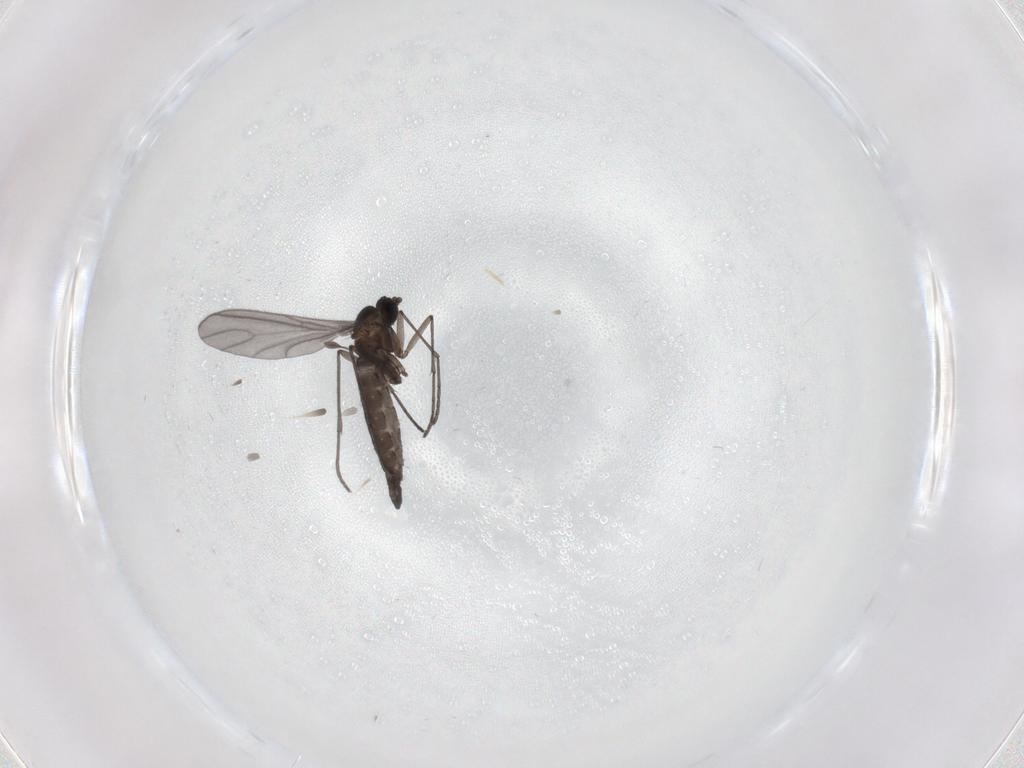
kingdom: Animalia
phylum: Arthropoda
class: Insecta
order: Diptera
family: Sciaridae
